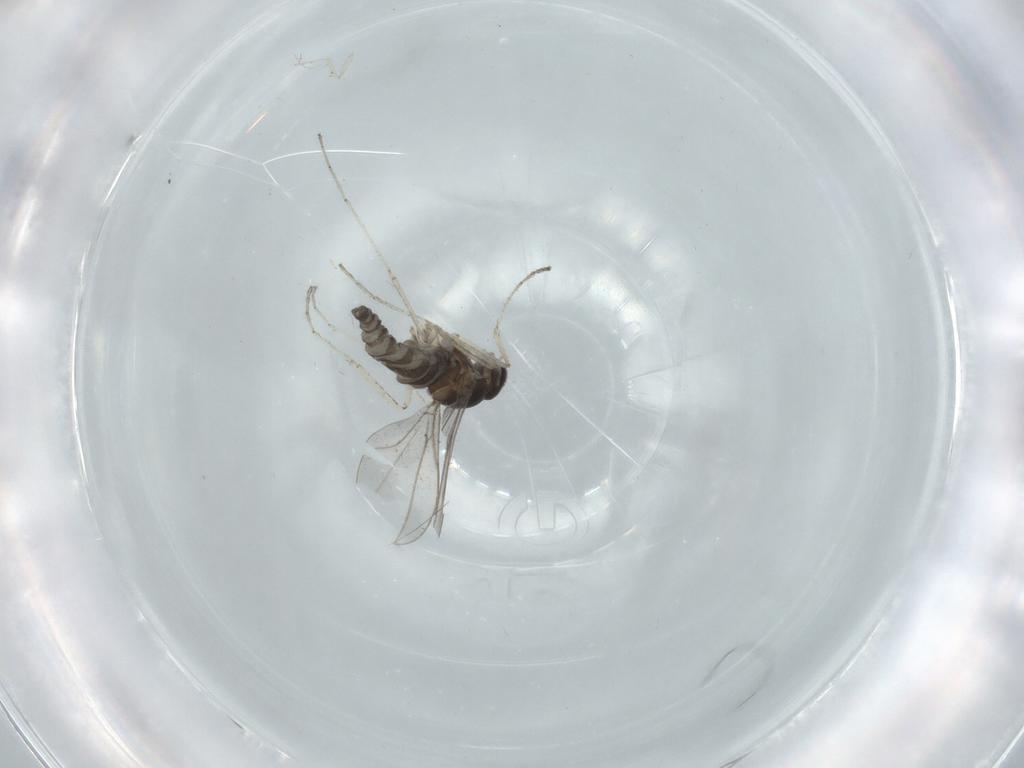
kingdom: Animalia
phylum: Arthropoda
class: Insecta
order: Diptera
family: Cecidomyiidae
